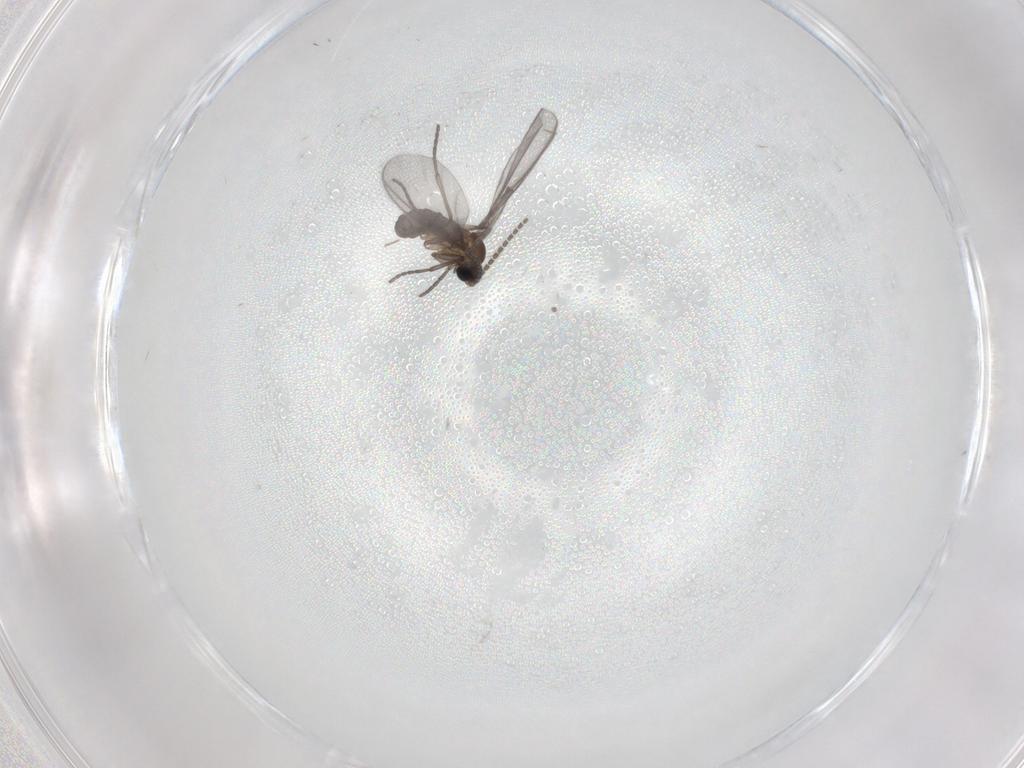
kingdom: Animalia
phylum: Arthropoda
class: Insecta
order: Diptera
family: Sciaridae
